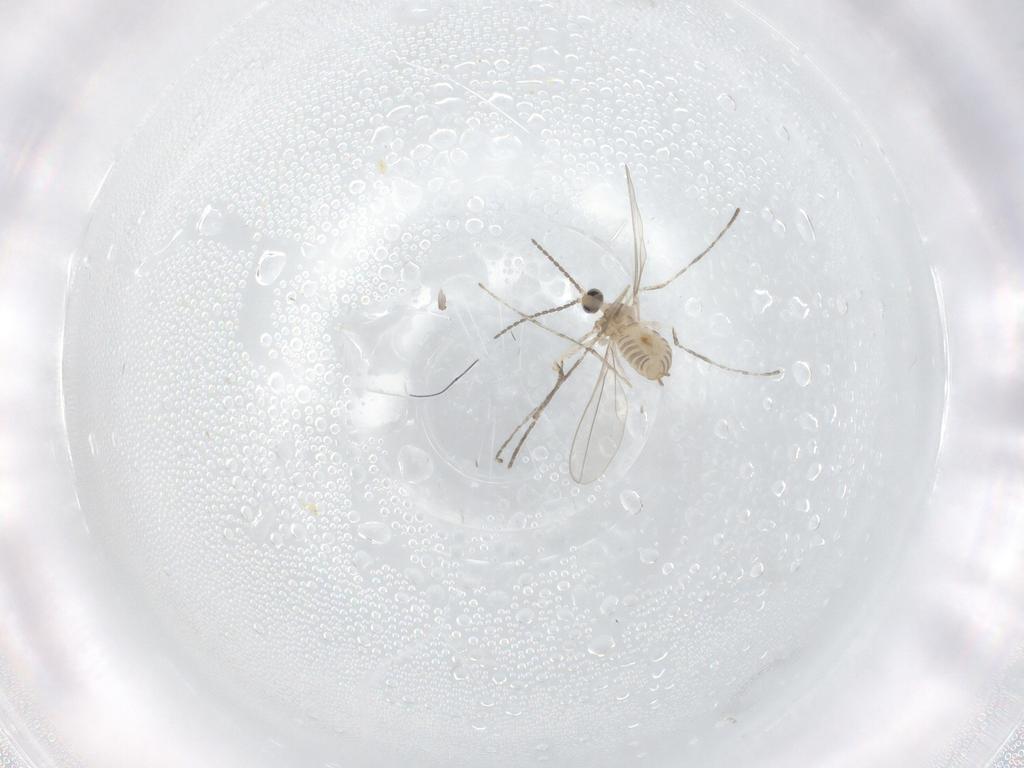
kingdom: Animalia
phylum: Arthropoda
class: Insecta
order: Diptera
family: Cecidomyiidae
